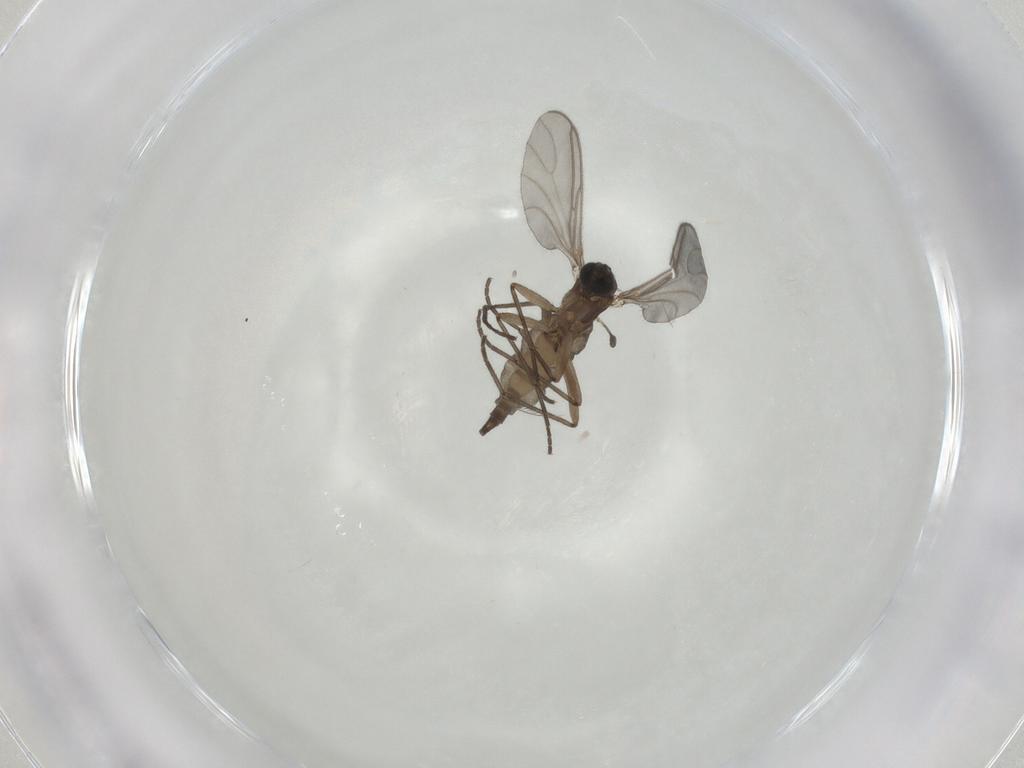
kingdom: Animalia
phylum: Arthropoda
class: Insecta
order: Diptera
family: Sciaridae
